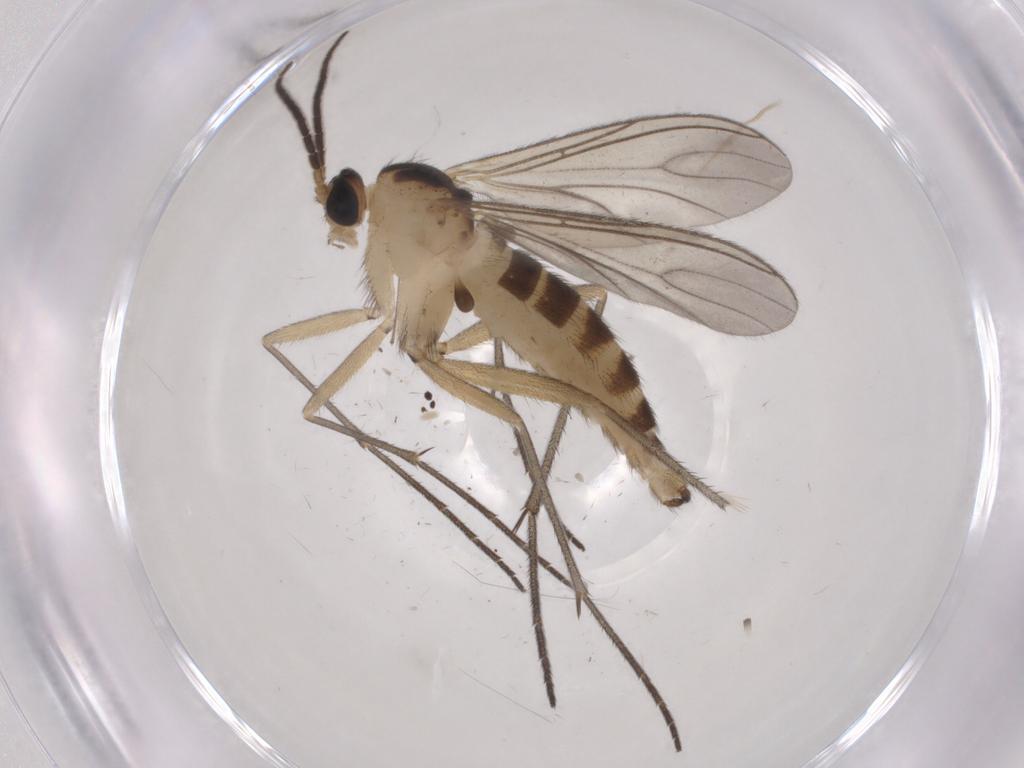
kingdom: Animalia
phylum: Arthropoda
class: Insecta
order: Diptera
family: Sciaridae
